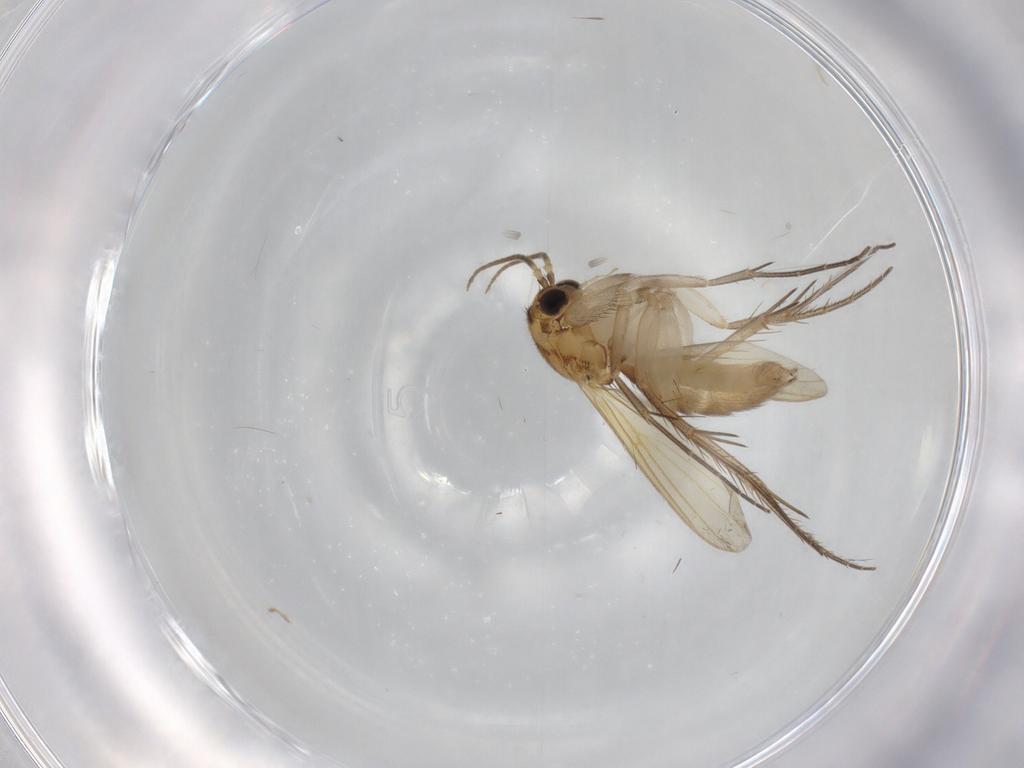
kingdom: Animalia
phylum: Arthropoda
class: Insecta
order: Diptera
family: Mycetophilidae
